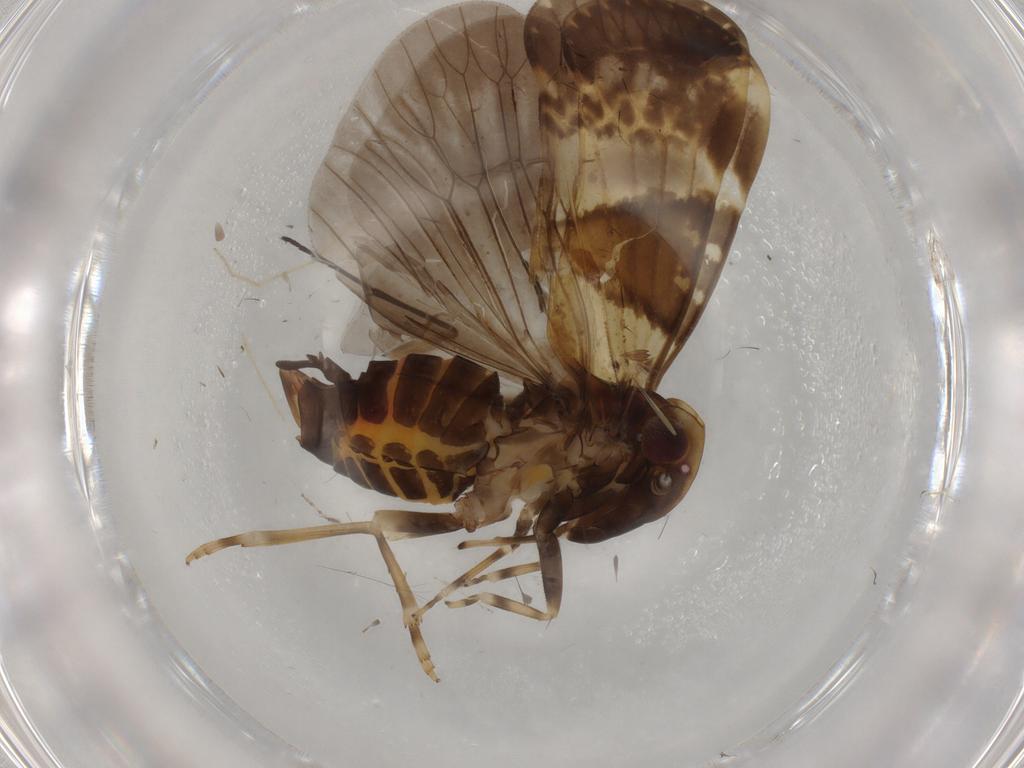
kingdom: Animalia
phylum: Arthropoda
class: Insecta
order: Hemiptera
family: Cixiidae
